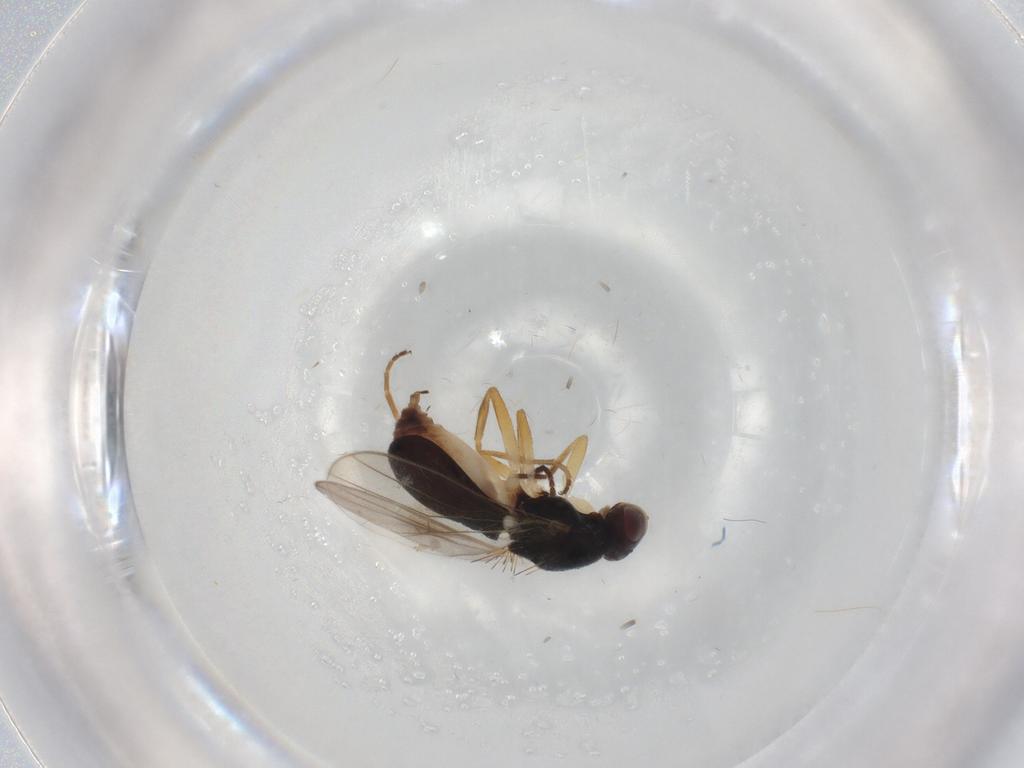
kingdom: Animalia
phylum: Arthropoda
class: Insecta
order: Diptera
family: Chloropidae
